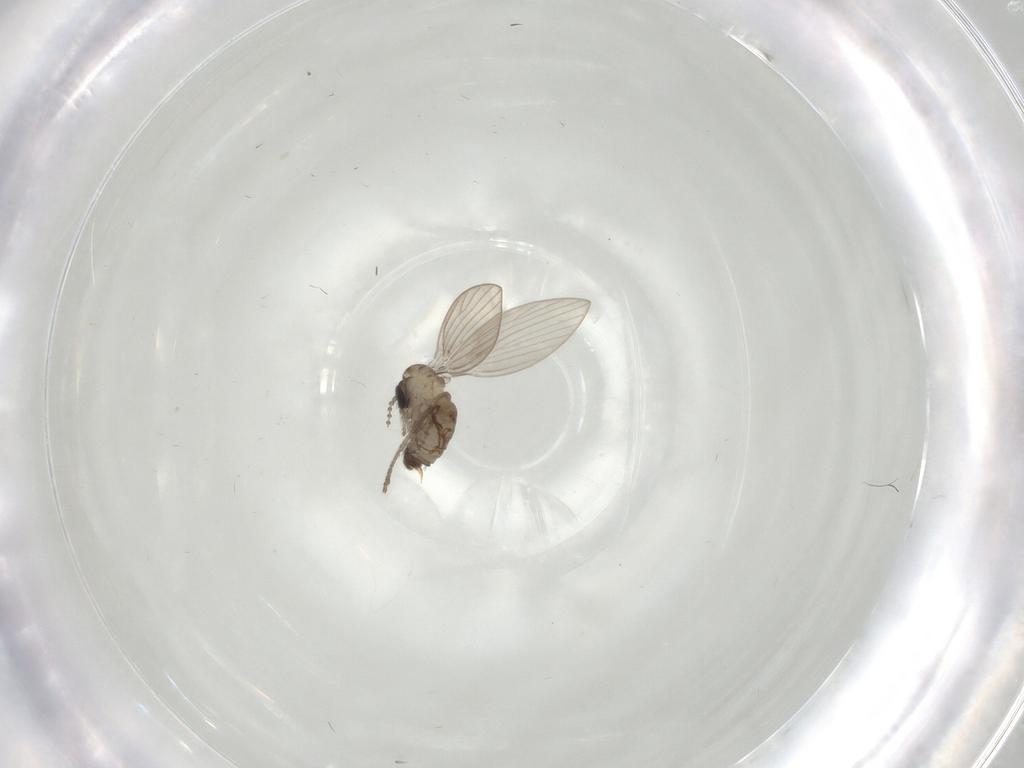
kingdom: Animalia
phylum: Arthropoda
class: Insecta
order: Diptera
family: Psychodidae
